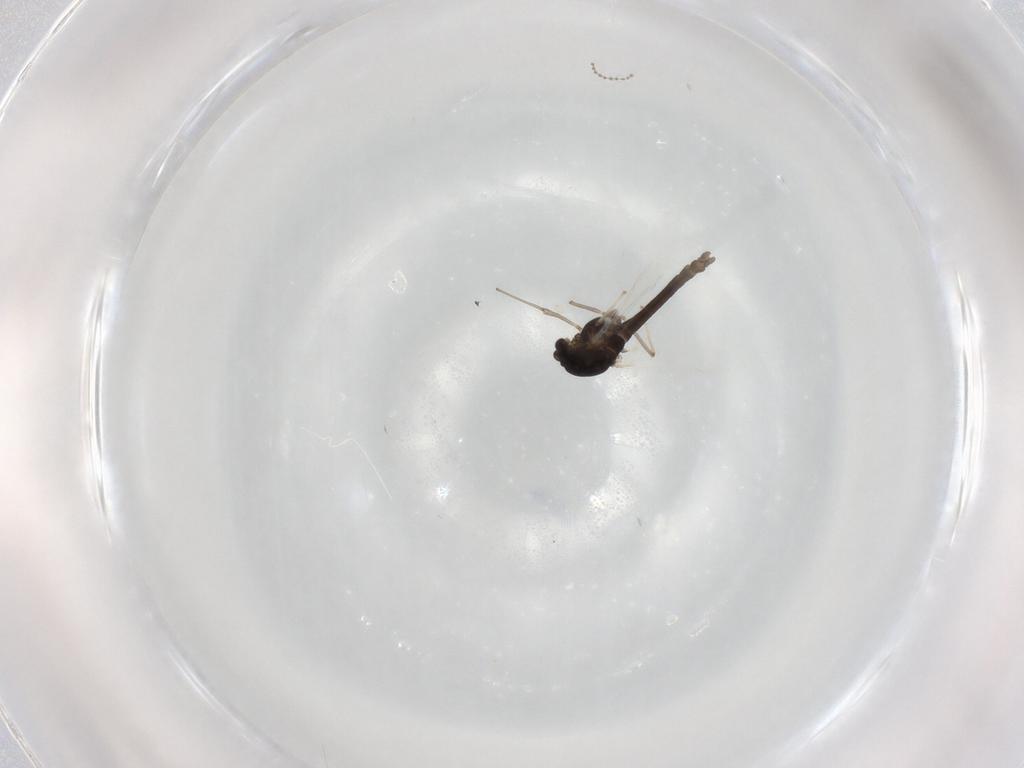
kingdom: Animalia
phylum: Arthropoda
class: Insecta
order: Diptera
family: Chironomidae
